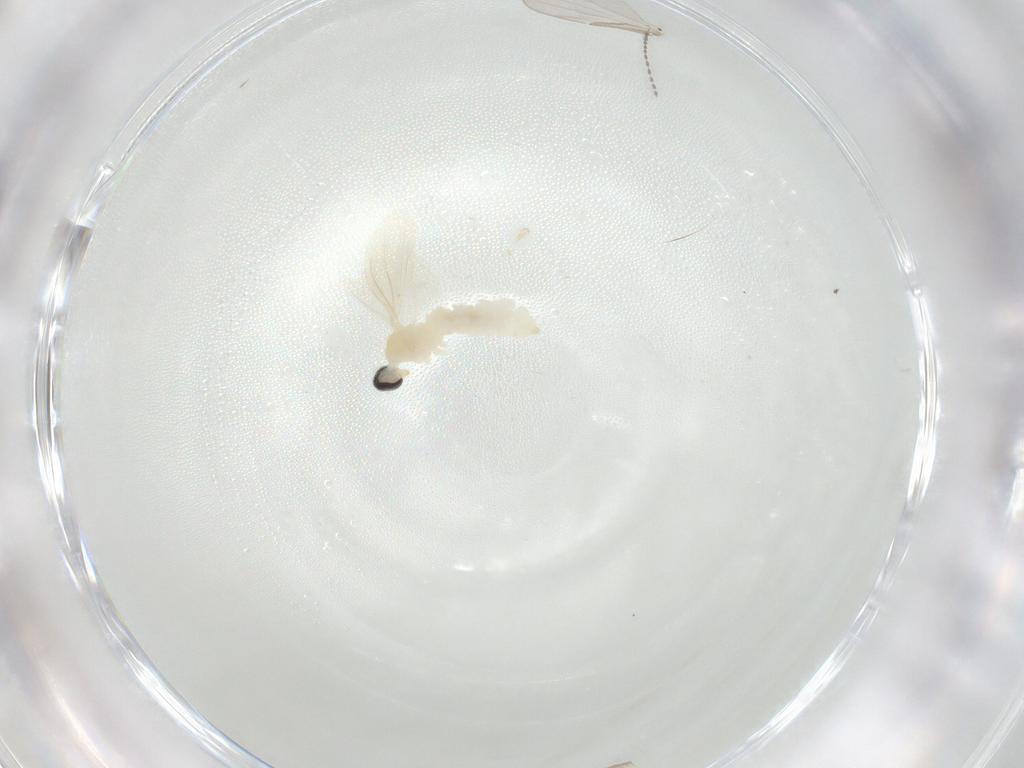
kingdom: Animalia
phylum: Arthropoda
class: Insecta
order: Diptera
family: Cecidomyiidae
